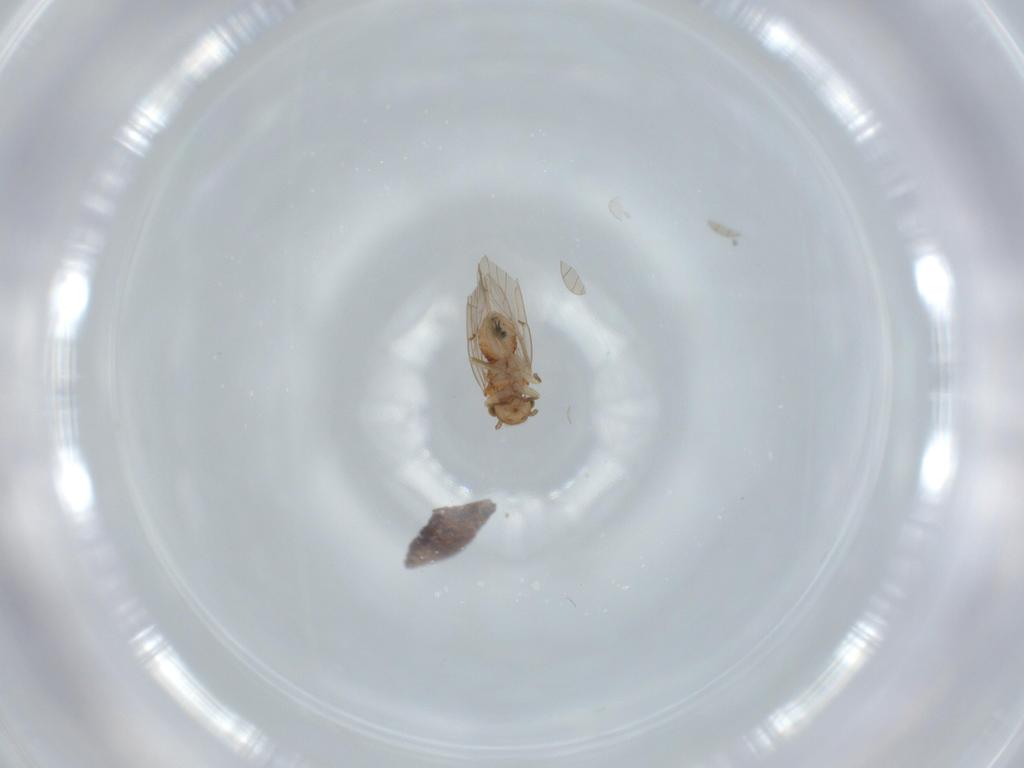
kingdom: Animalia
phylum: Arthropoda
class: Insecta
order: Psocodea
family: Ectopsocidae
